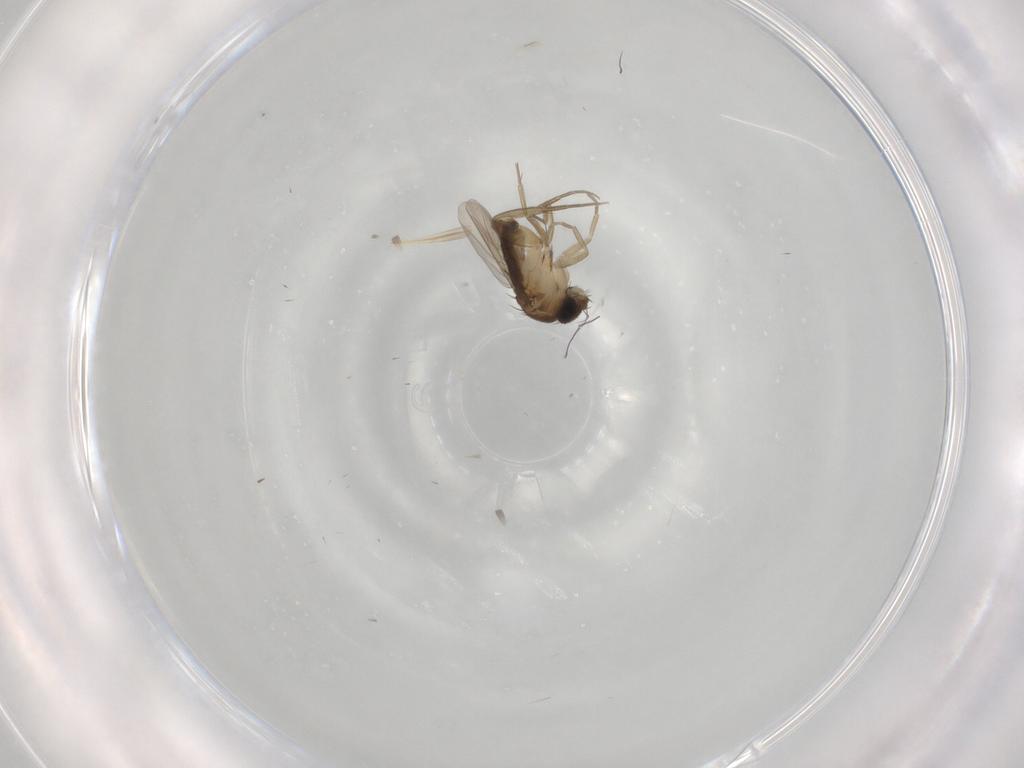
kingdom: Animalia
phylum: Arthropoda
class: Insecta
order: Diptera
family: Phoridae
